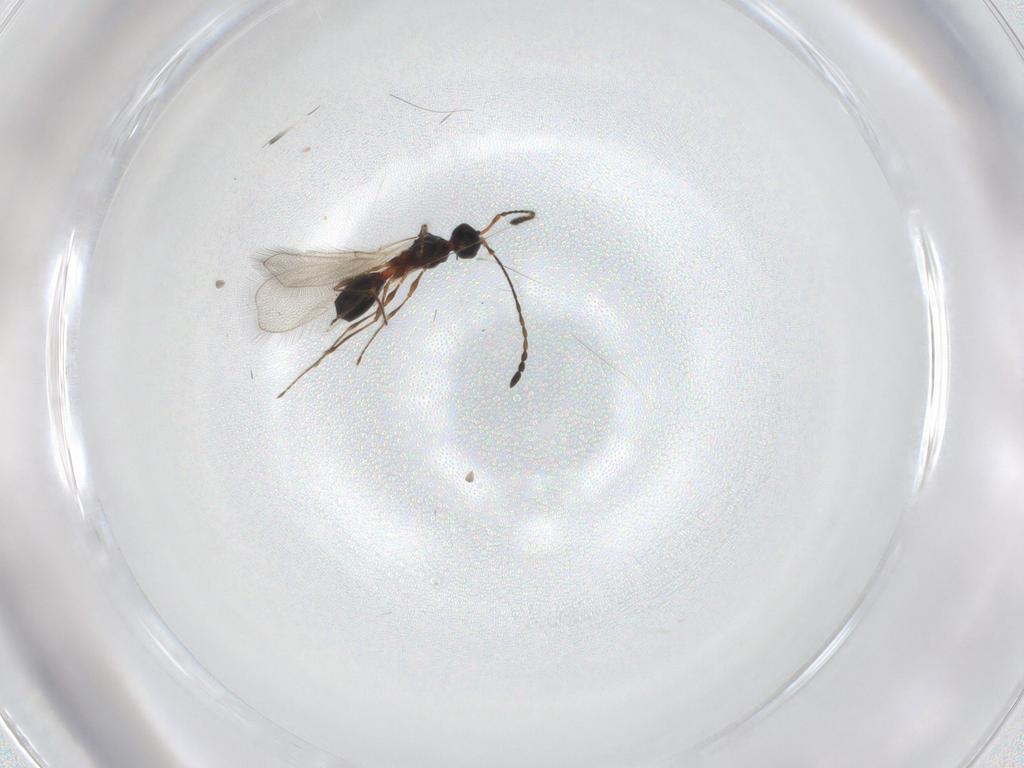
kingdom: Animalia
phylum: Arthropoda
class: Insecta
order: Hymenoptera
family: Diapriidae
